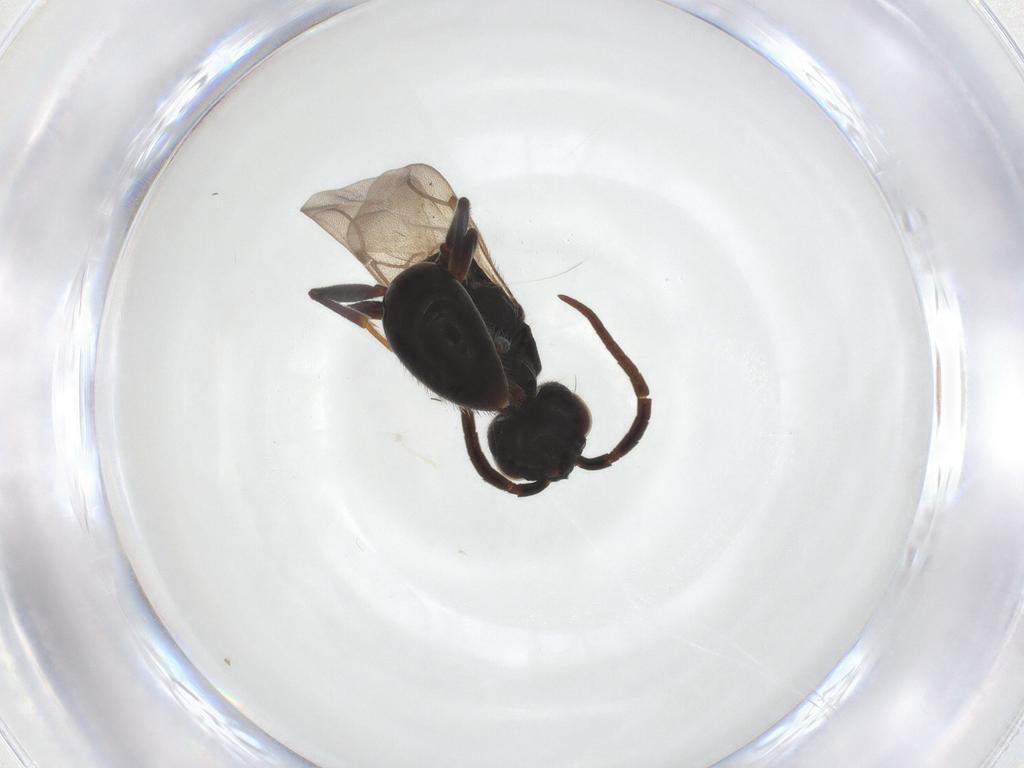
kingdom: Animalia
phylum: Arthropoda
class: Insecta
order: Hymenoptera
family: Bethylidae
